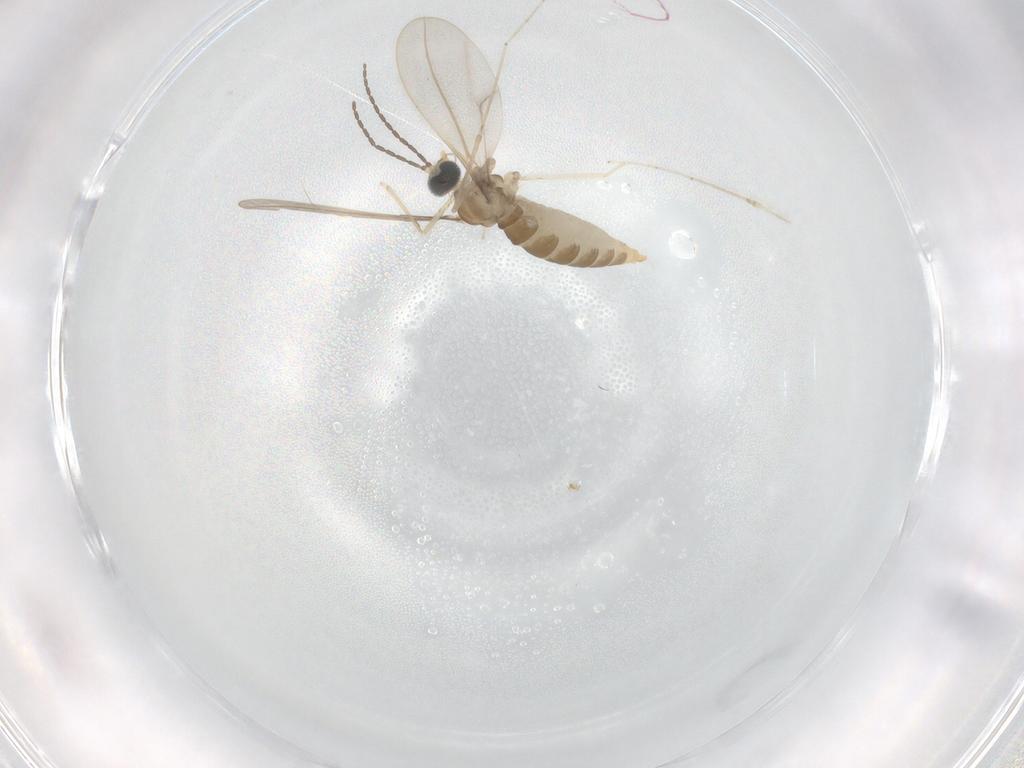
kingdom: Animalia
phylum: Arthropoda
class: Insecta
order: Diptera
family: Cecidomyiidae
